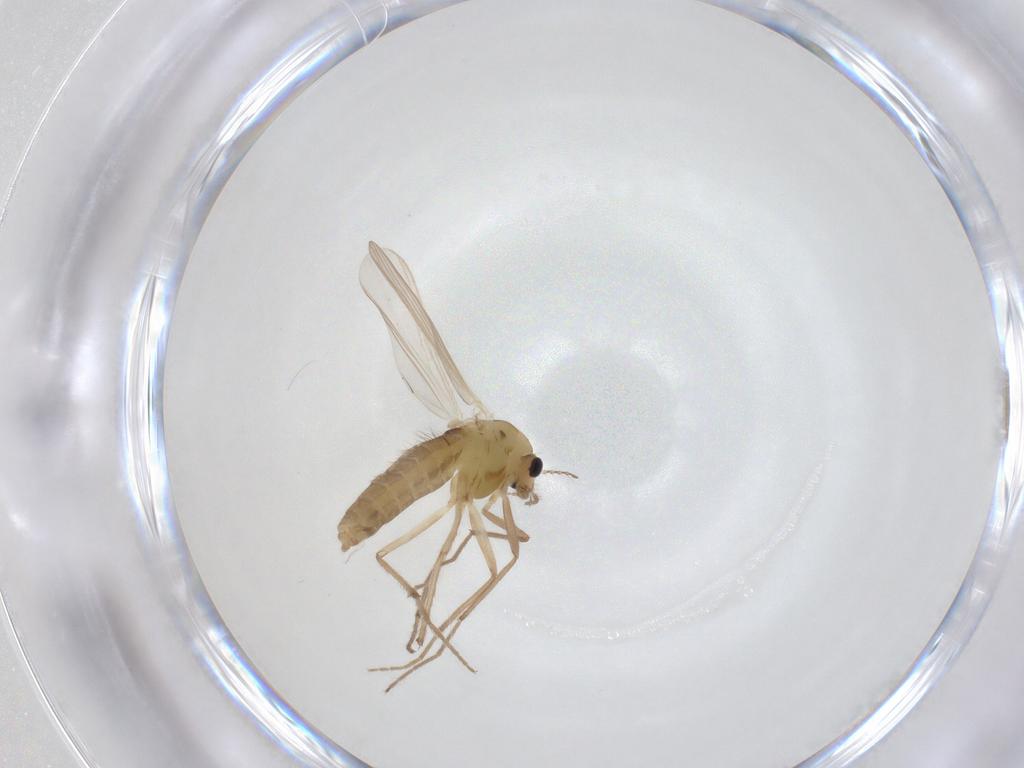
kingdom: Animalia
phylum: Arthropoda
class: Insecta
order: Diptera
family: Chironomidae
